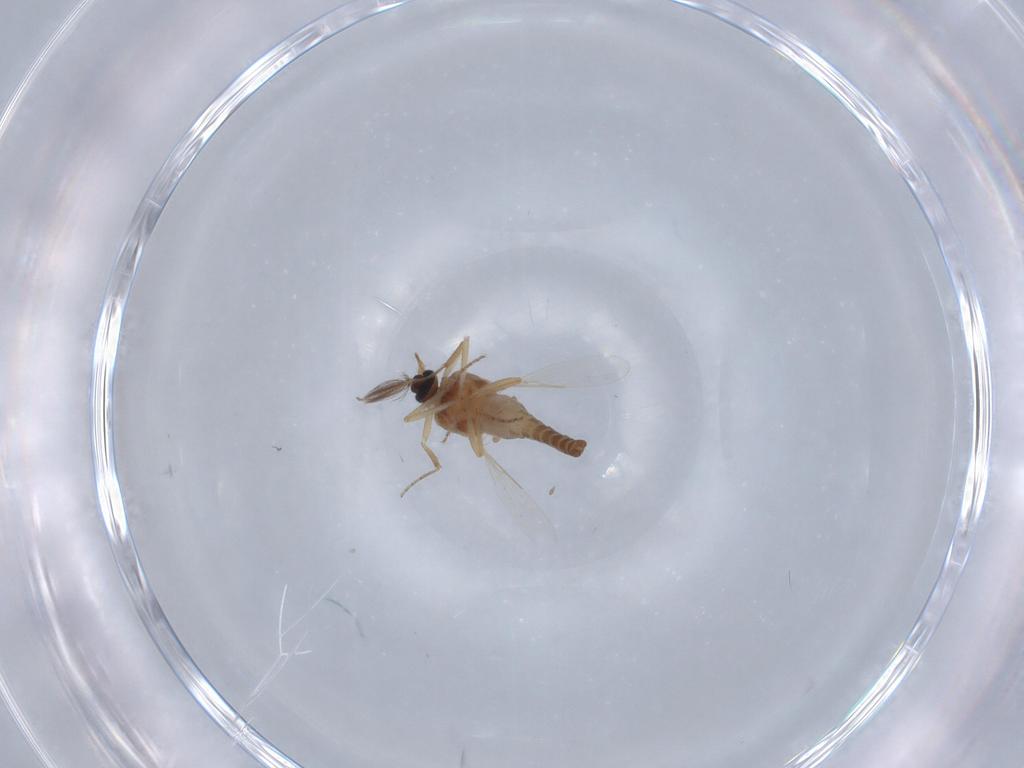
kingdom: Animalia
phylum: Arthropoda
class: Insecta
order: Diptera
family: Ceratopogonidae
